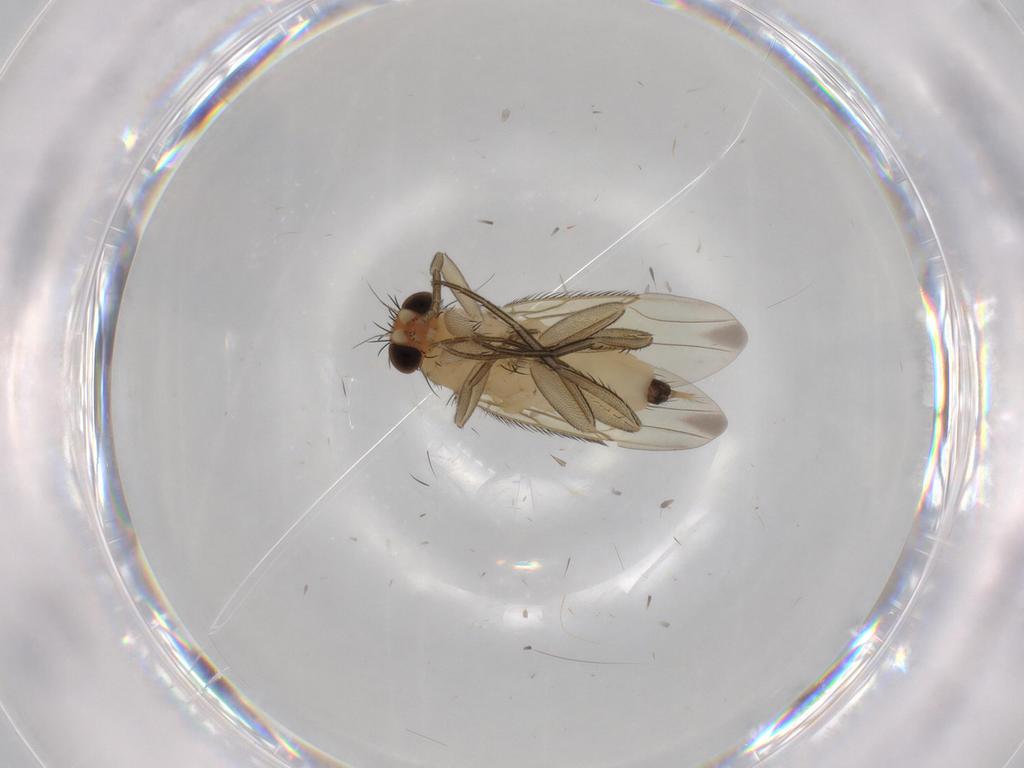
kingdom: Animalia
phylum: Arthropoda
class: Insecta
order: Diptera
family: Phoridae
